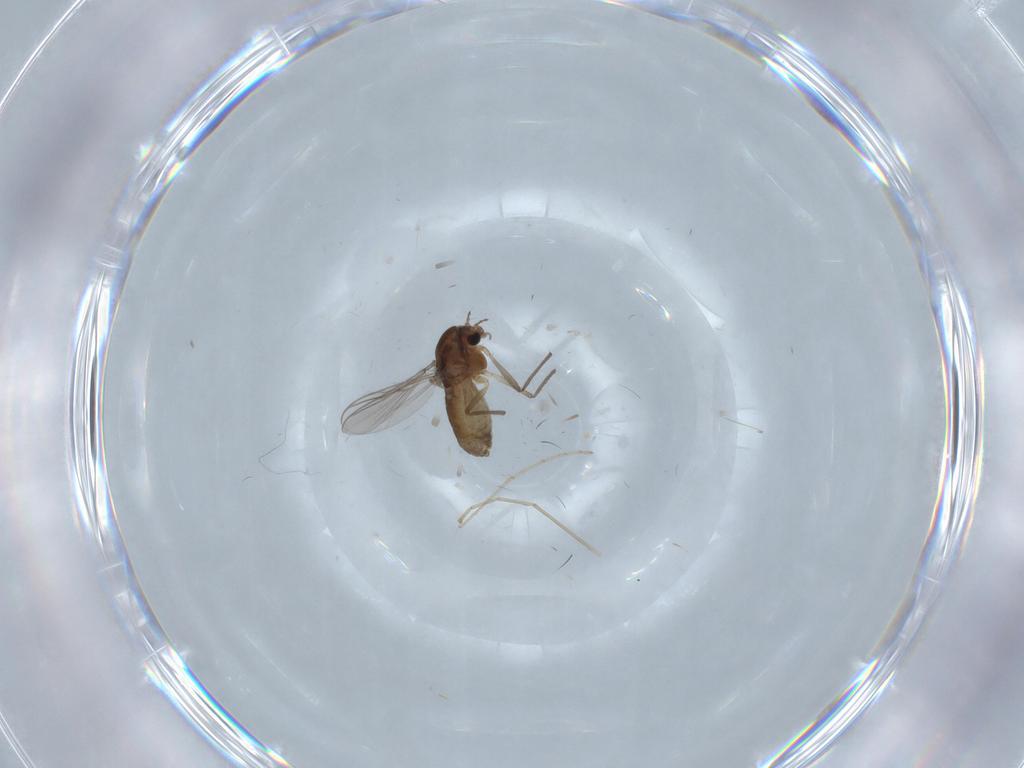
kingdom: Animalia
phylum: Arthropoda
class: Insecta
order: Diptera
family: Chironomidae
